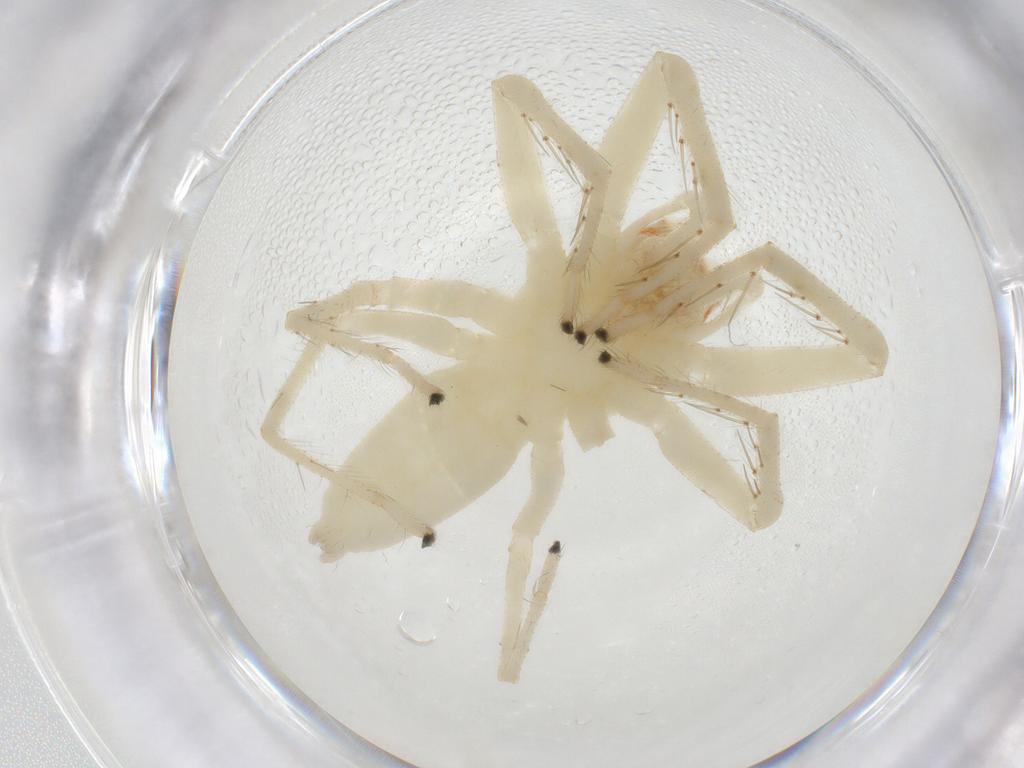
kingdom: Animalia
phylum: Arthropoda
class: Arachnida
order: Araneae
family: Salticidae
